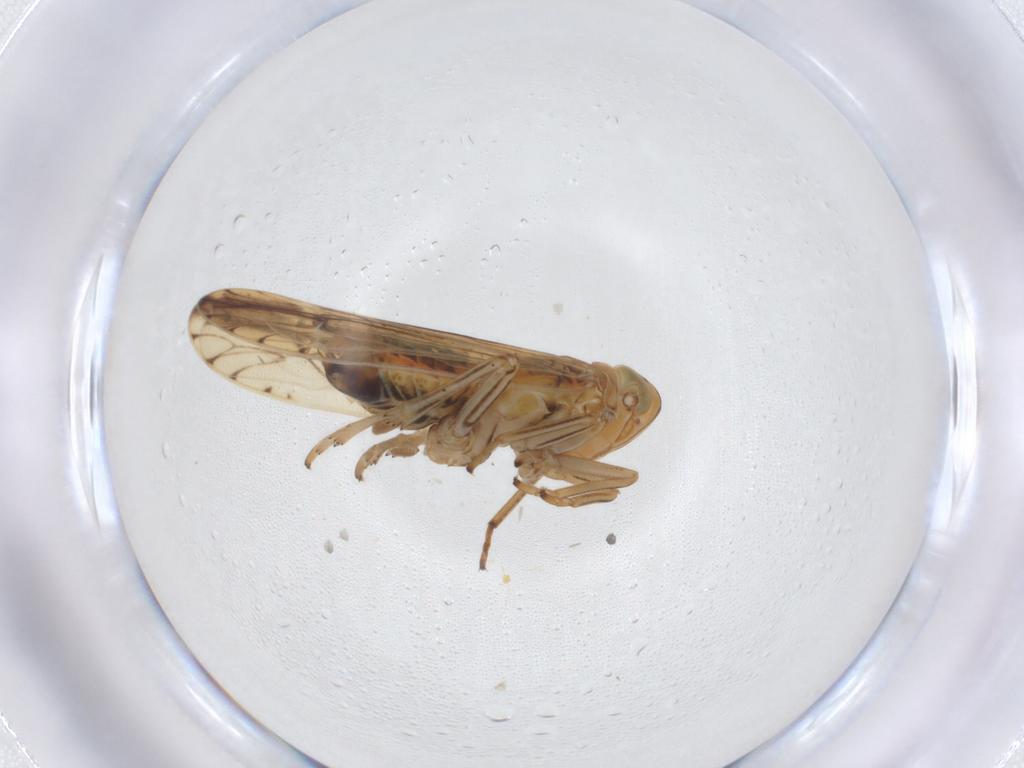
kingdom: Animalia
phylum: Arthropoda
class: Insecta
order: Hemiptera
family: Delphacidae
